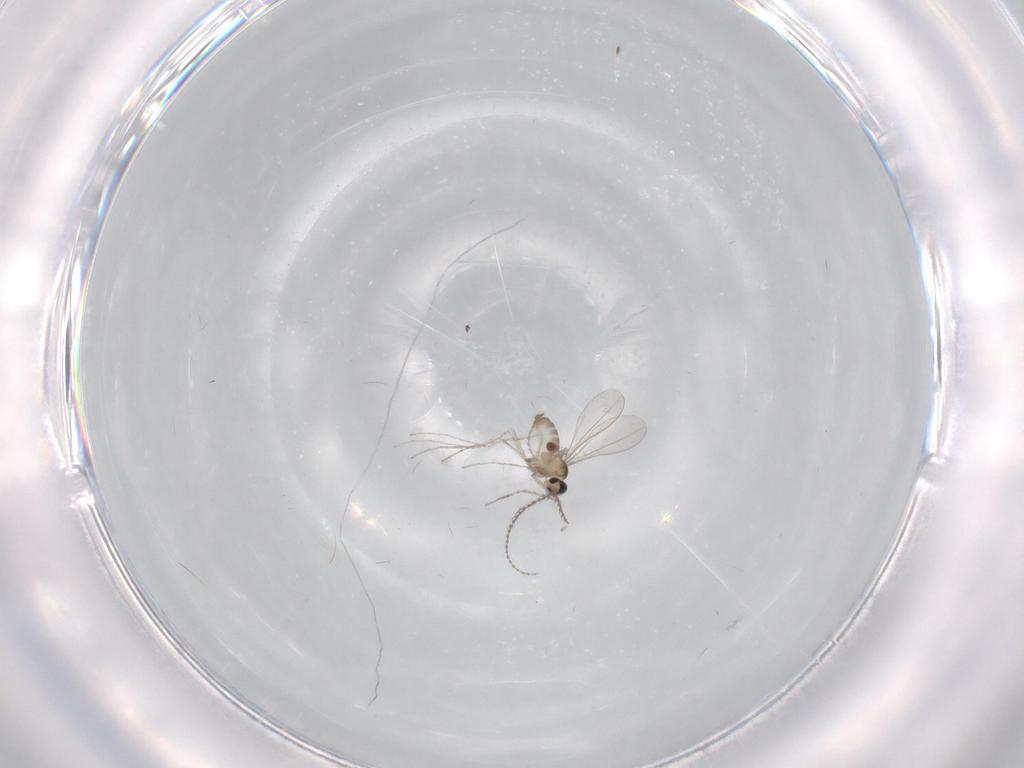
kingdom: Animalia
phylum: Arthropoda
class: Insecta
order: Diptera
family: Cecidomyiidae
